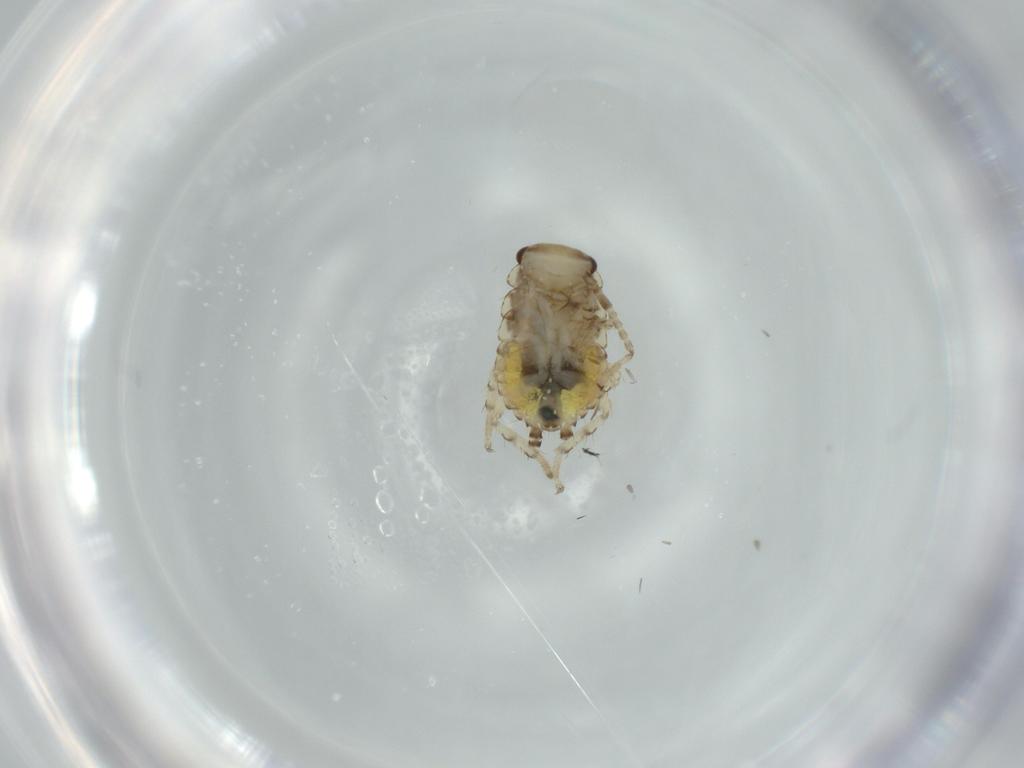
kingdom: Animalia
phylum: Arthropoda
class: Insecta
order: Blattodea
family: Ectobiidae
